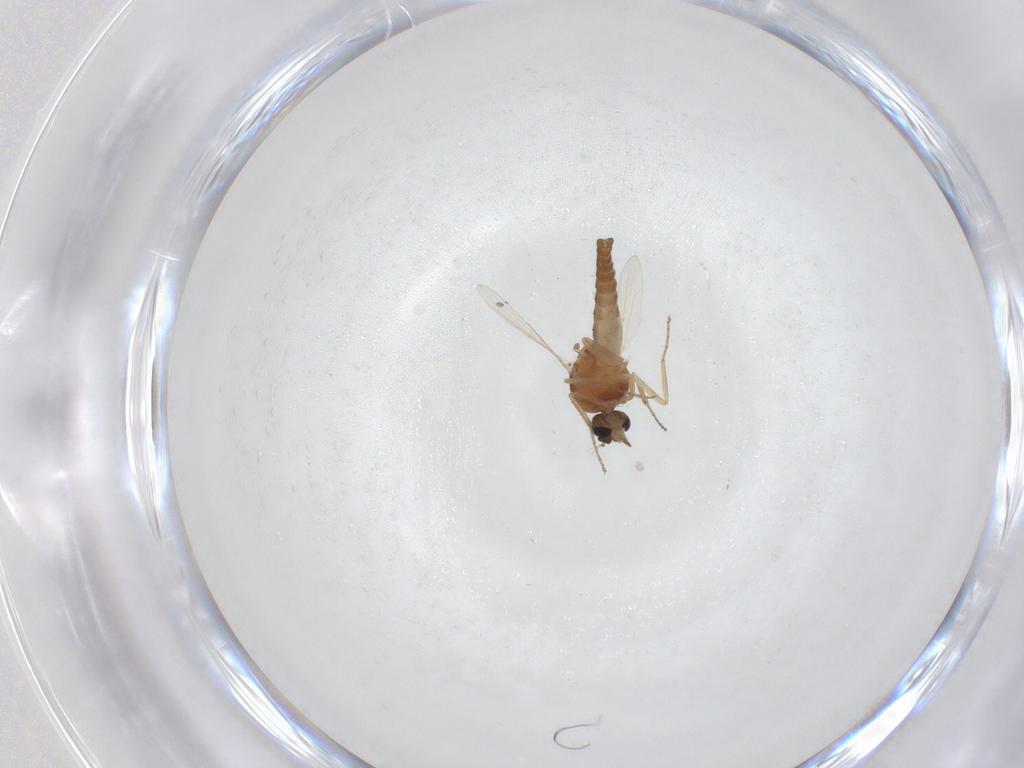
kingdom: Animalia
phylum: Arthropoda
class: Insecta
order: Diptera
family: Ceratopogonidae
